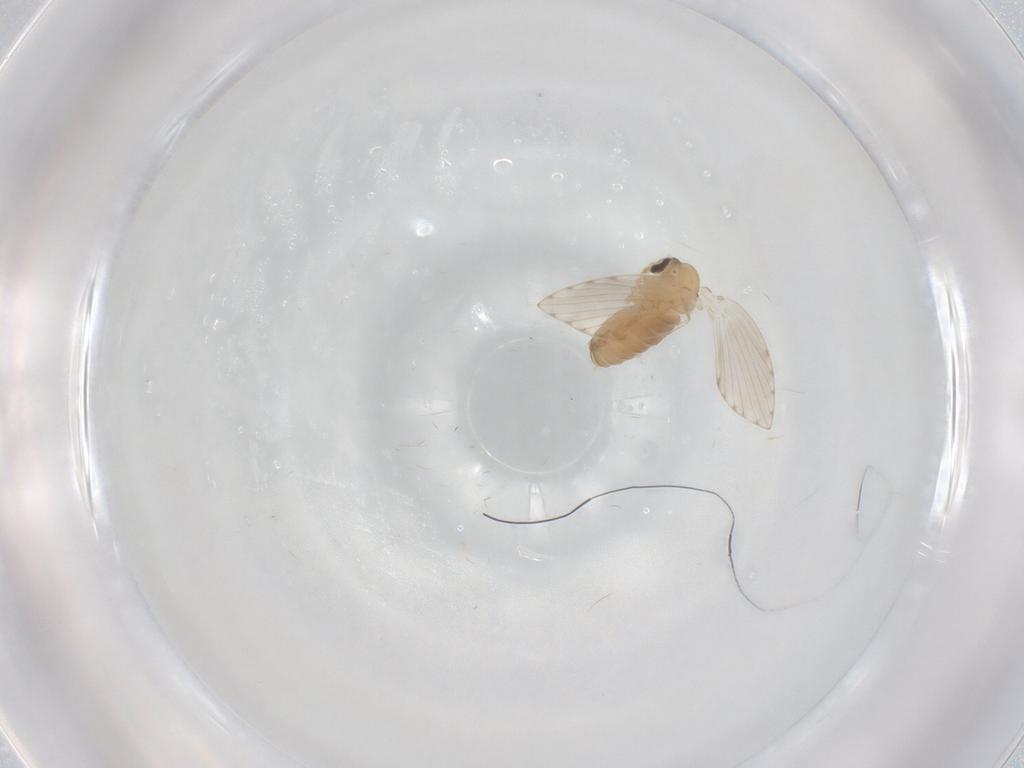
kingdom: Animalia
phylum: Arthropoda
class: Insecta
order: Diptera
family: Psychodidae
